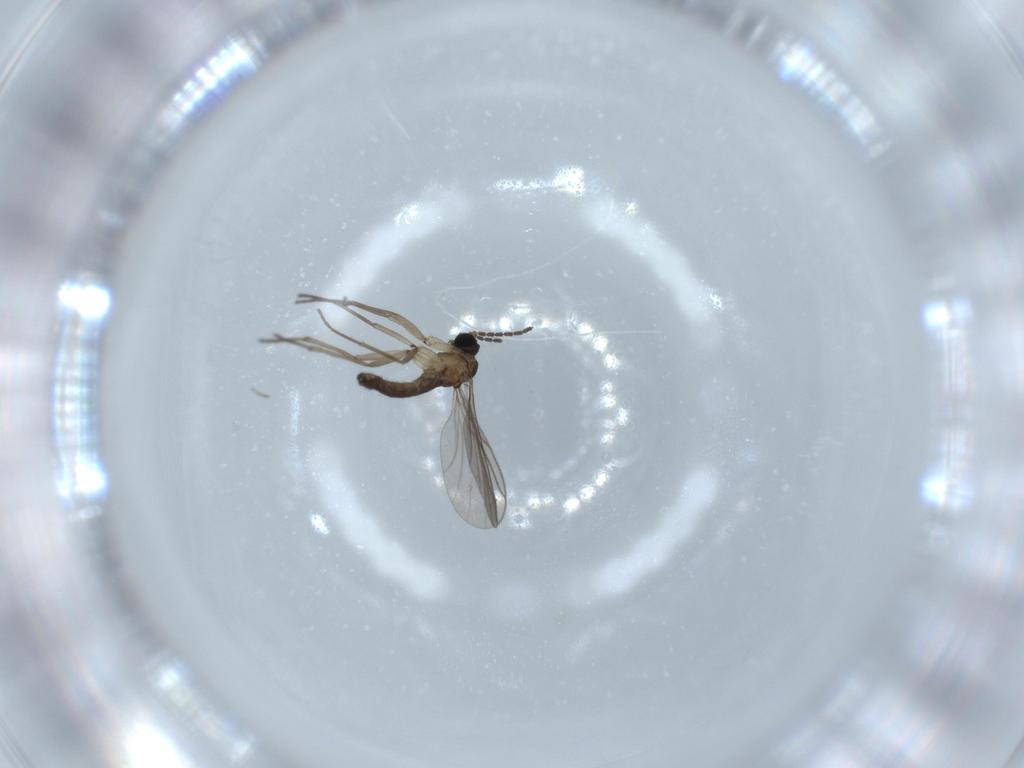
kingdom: Animalia
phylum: Arthropoda
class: Insecta
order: Diptera
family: Sciaridae
